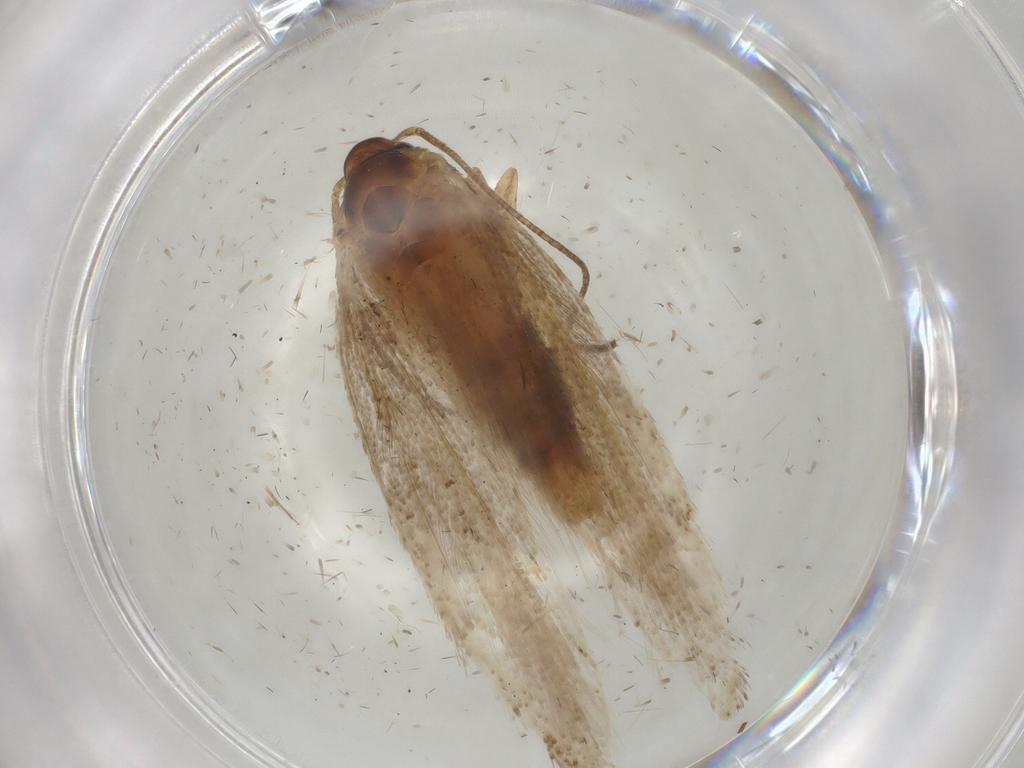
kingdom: Animalia
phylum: Arthropoda
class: Insecta
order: Lepidoptera
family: Gelechiidae
